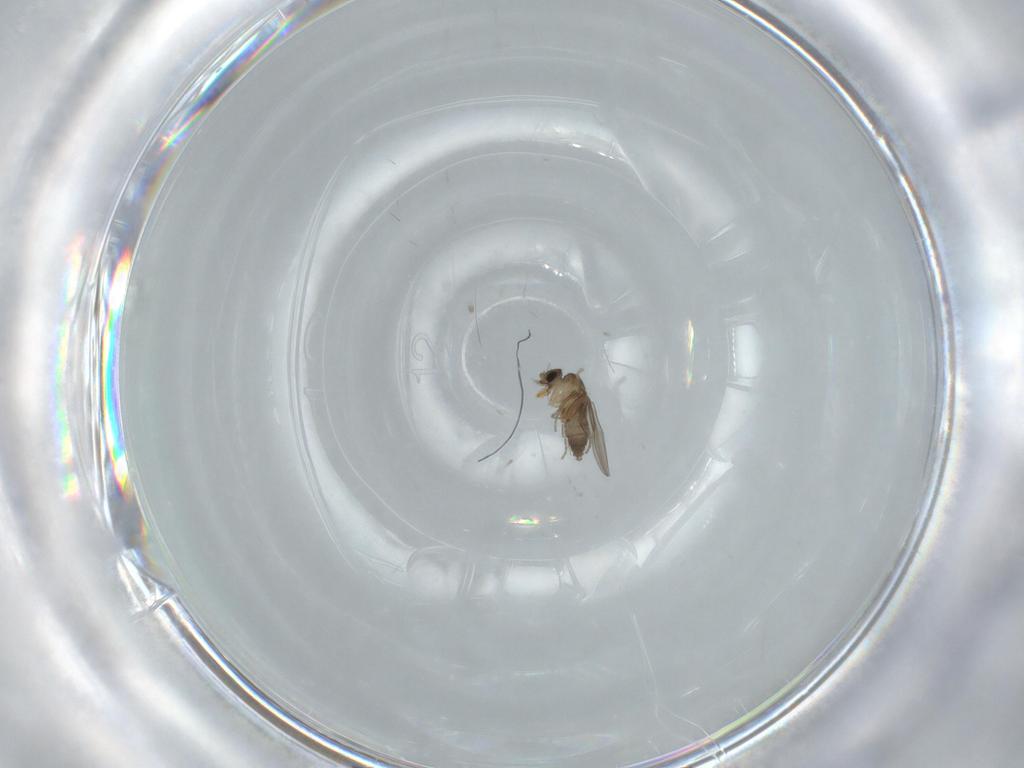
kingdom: Animalia
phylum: Arthropoda
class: Insecta
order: Diptera
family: Phoridae
